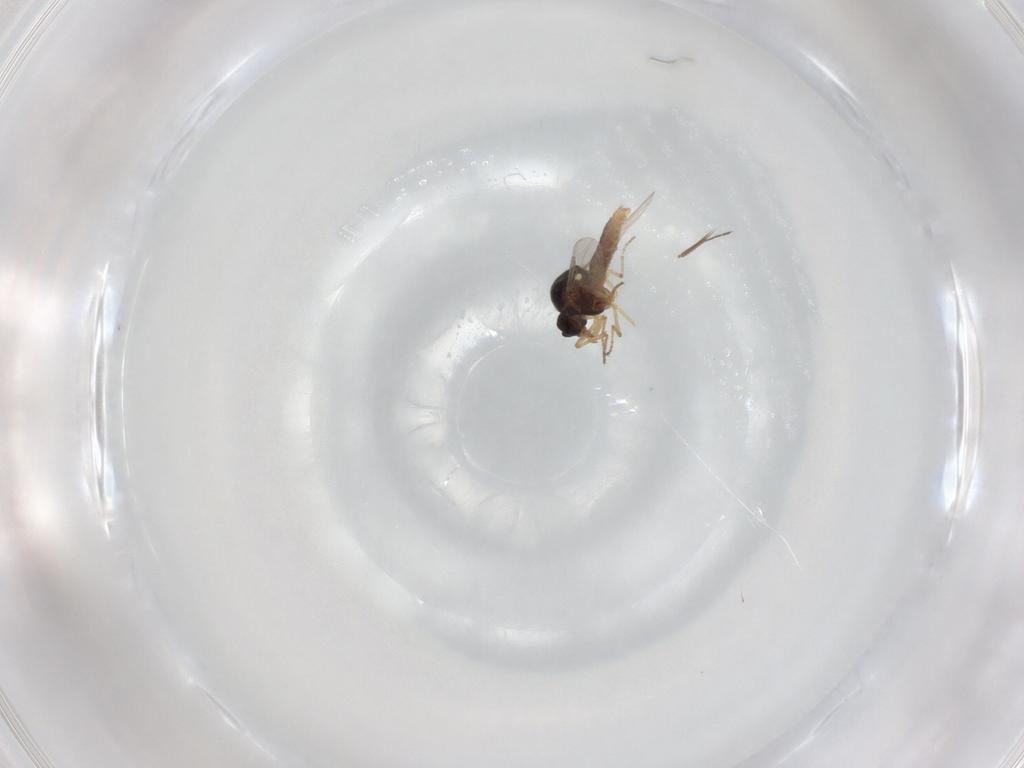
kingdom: Animalia
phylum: Arthropoda
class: Insecta
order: Diptera
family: Ceratopogonidae
